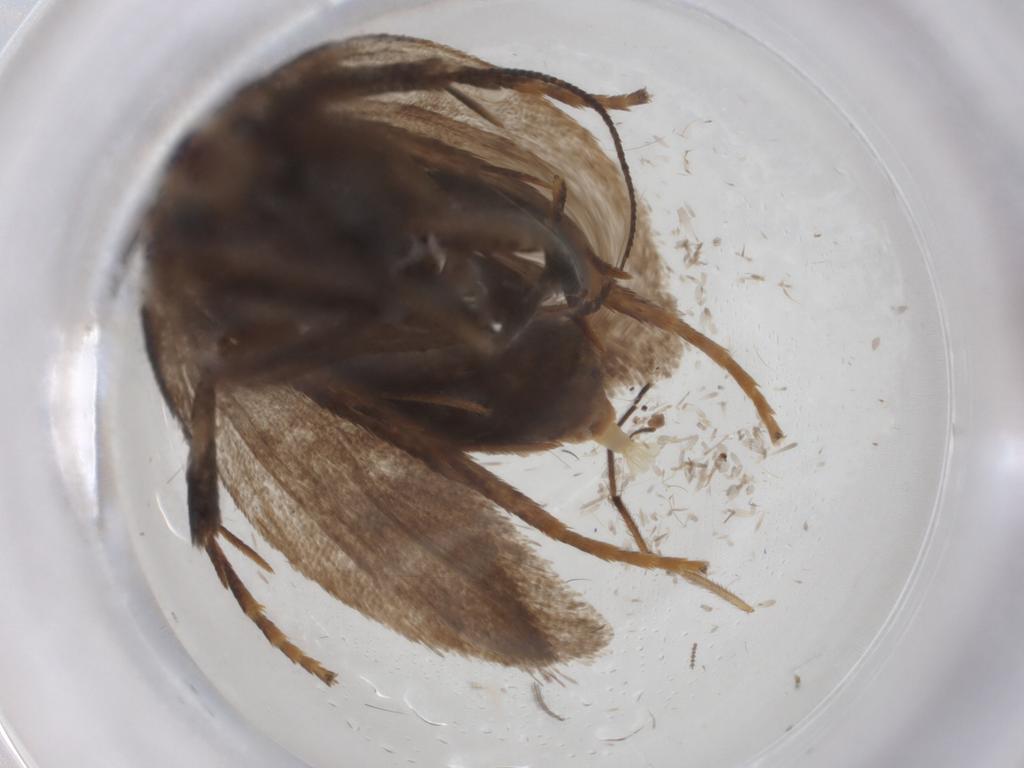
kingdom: Animalia
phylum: Arthropoda
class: Insecta
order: Lepidoptera
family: Oecophoridae
